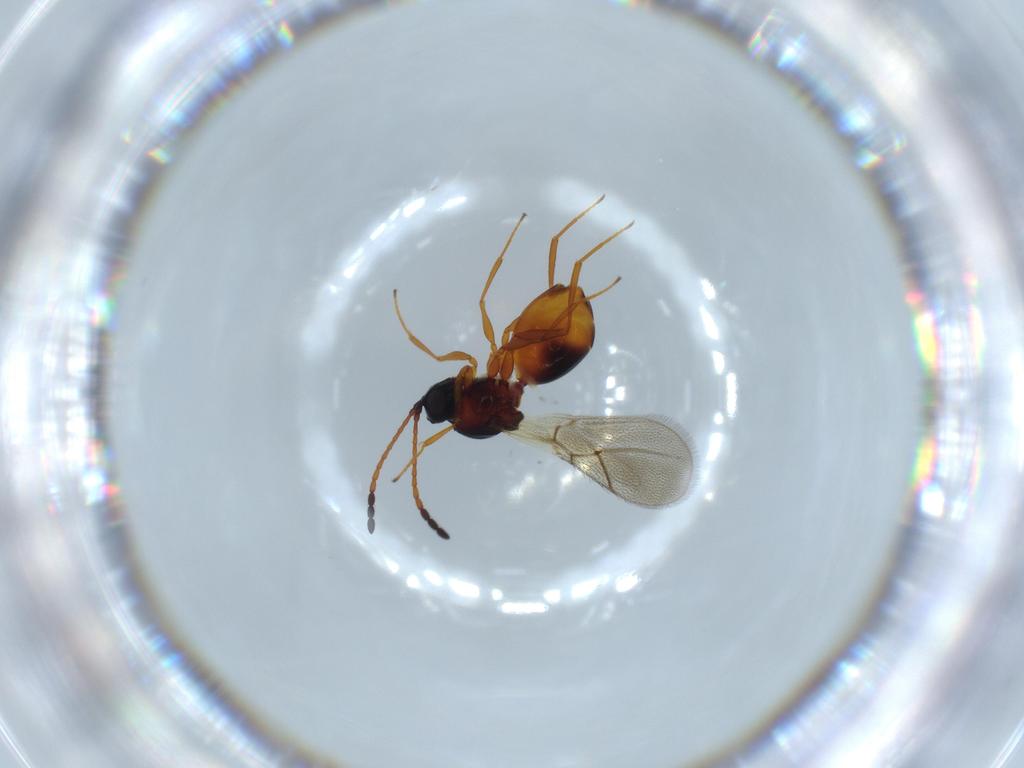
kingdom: Animalia
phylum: Arthropoda
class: Insecta
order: Hymenoptera
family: Figitidae
